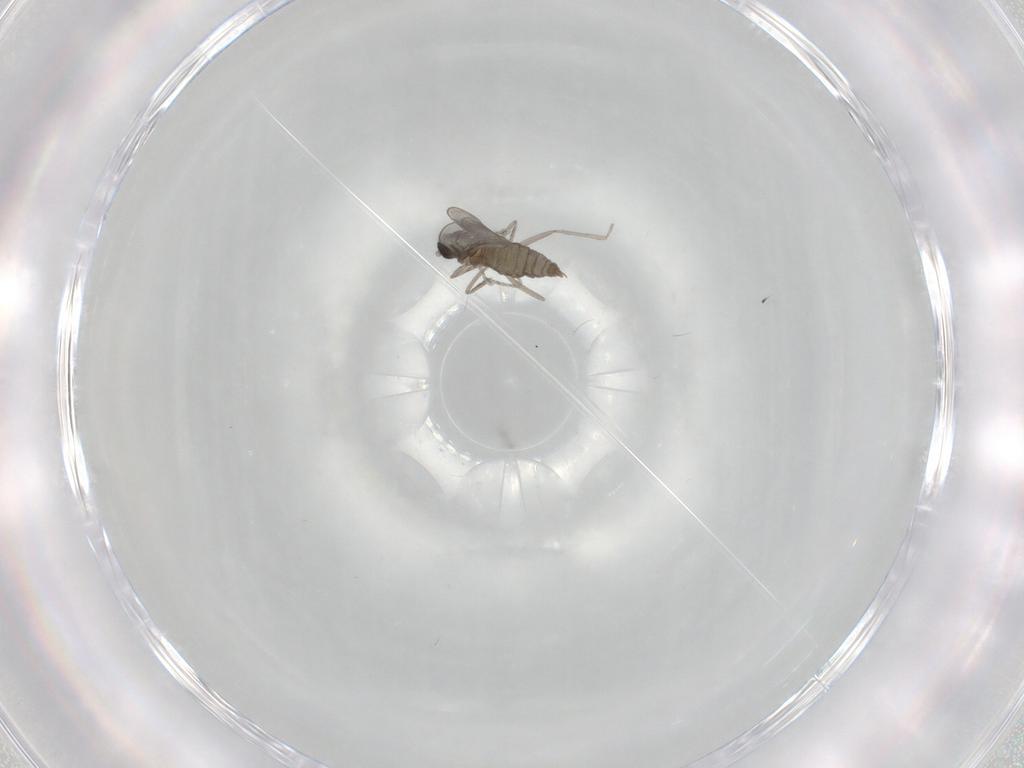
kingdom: Animalia
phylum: Arthropoda
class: Insecta
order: Diptera
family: Cecidomyiidae
